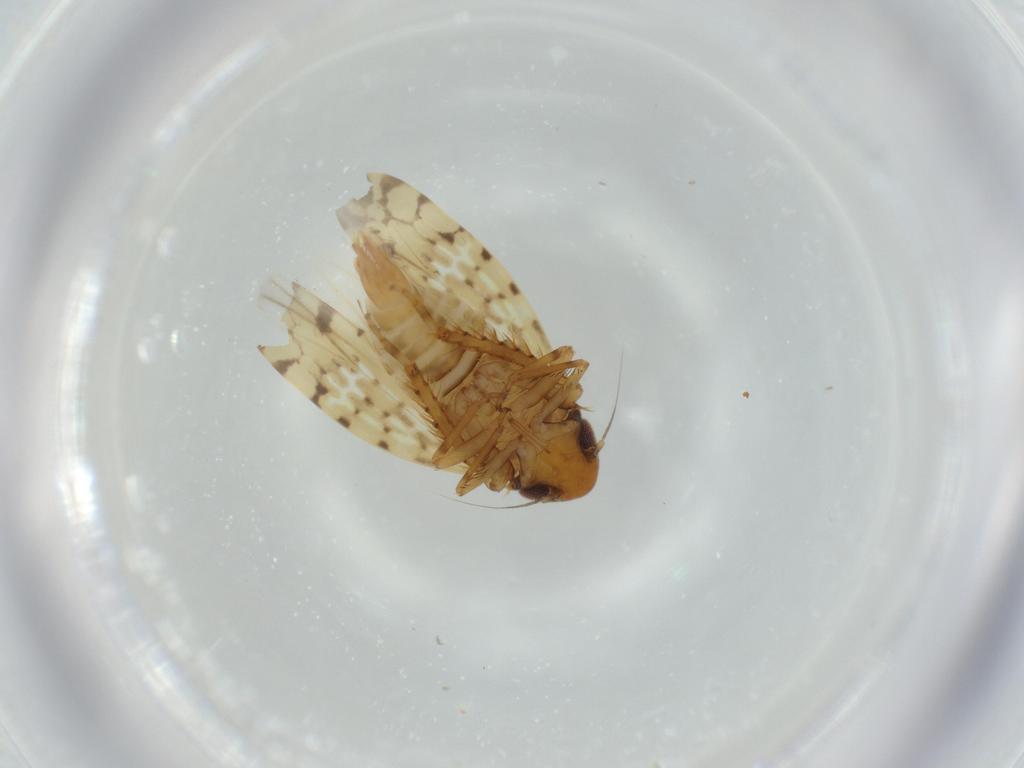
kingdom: Animalia
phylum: Arthropoda
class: Insecta
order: Hemiptera
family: Cicadellidae
